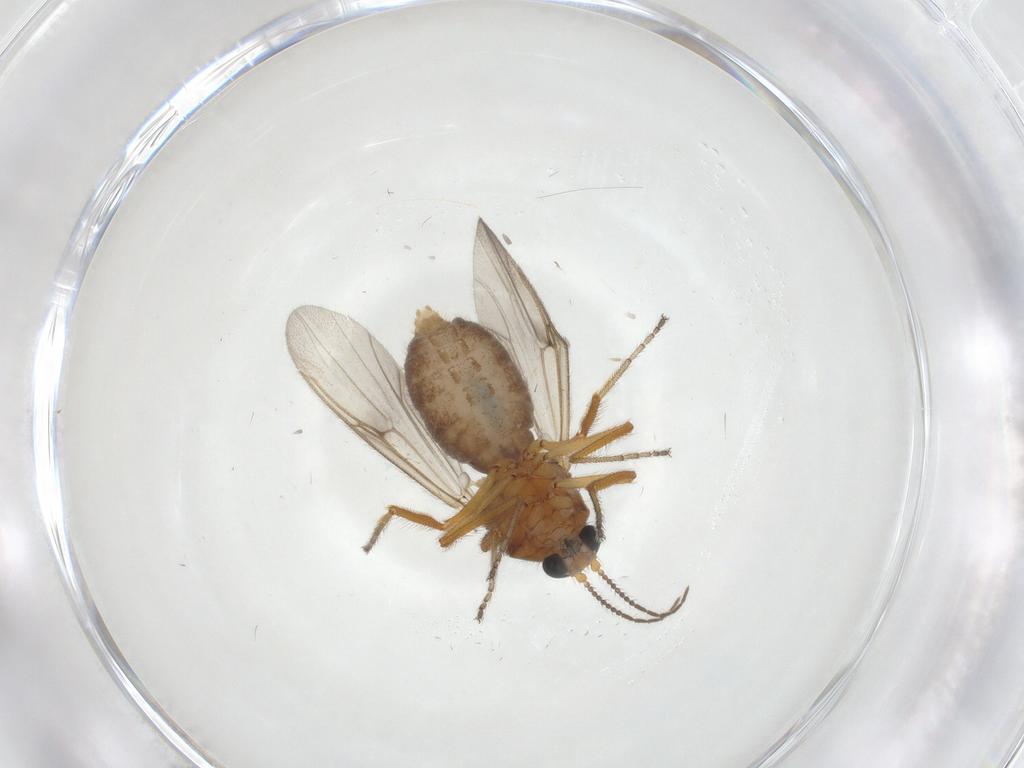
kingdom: Animalia
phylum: Arthropoda
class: Insecta
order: Diptera
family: Ceratopogonidae
